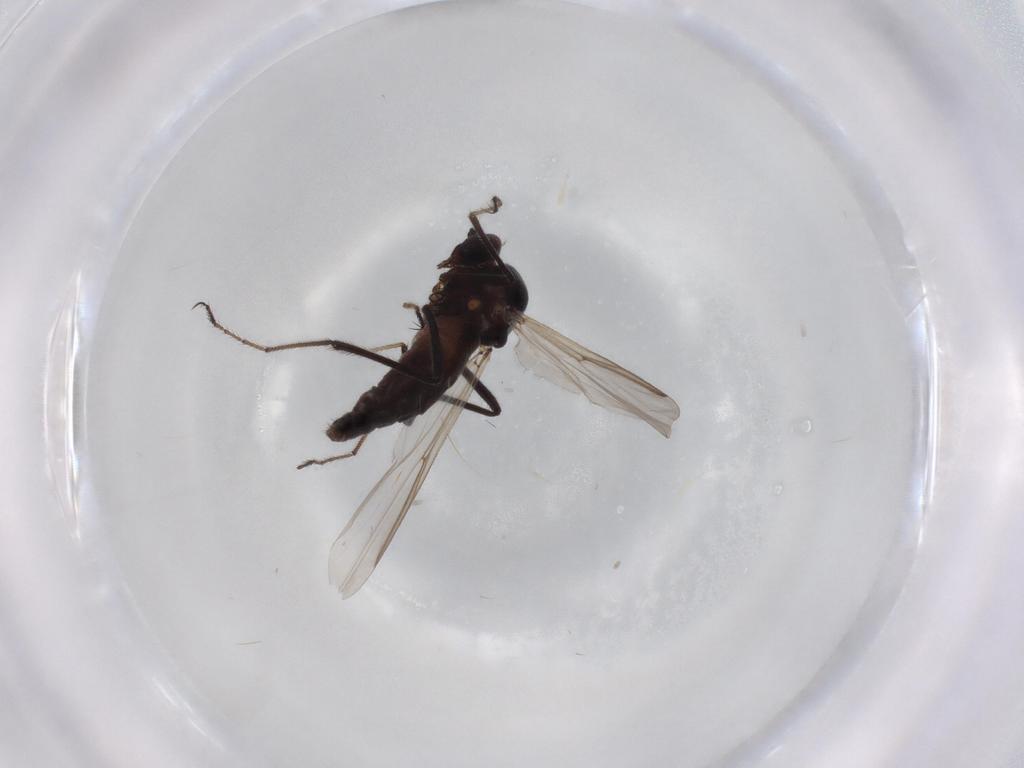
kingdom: Animalia
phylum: Arthropoda
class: Insecta
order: Diptera
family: Ceratopogonidae
